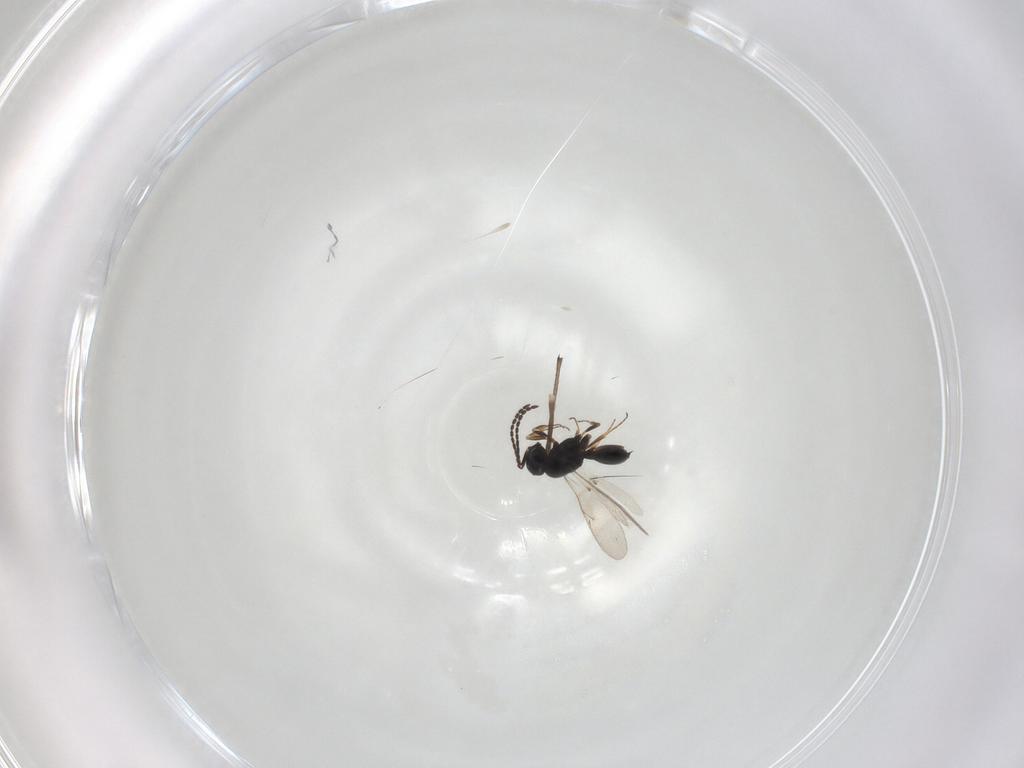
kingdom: Animalia
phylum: Arthropoda
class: Insecta
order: Hymenoptera
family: Scelionidae
